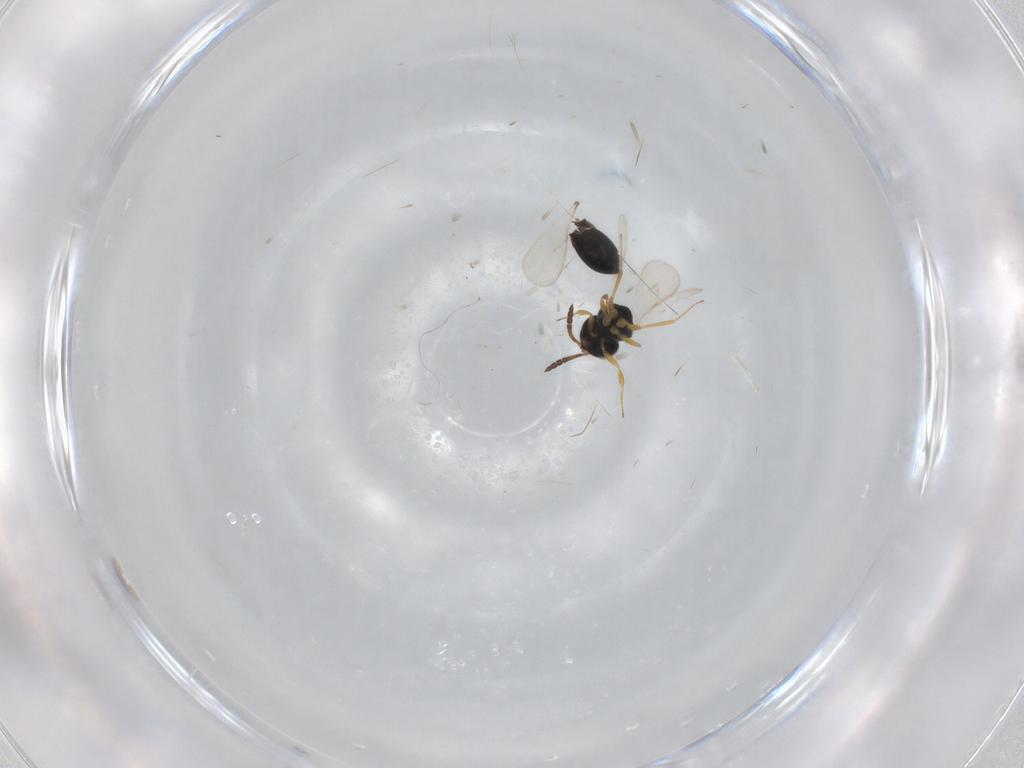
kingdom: Animalia
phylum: Arthropoda
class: Insecta
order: Hymenoptera
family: Scelionidae
